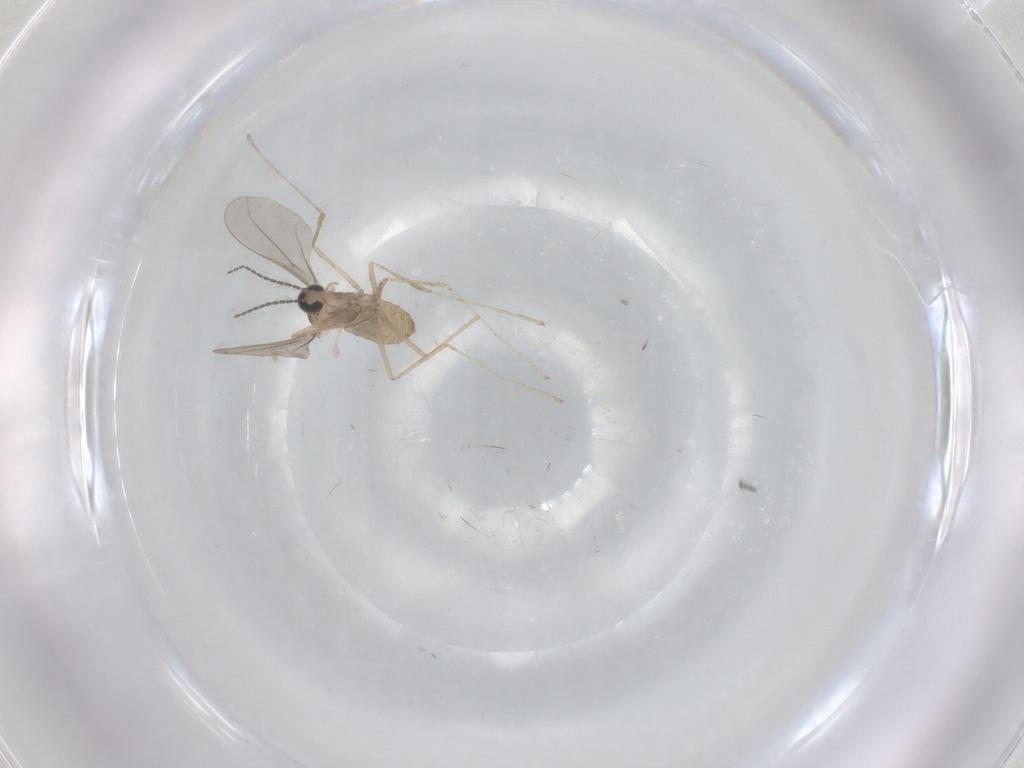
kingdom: Animalia
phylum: Arthropoda
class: Insecta
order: Diptera
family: Chironomidae
